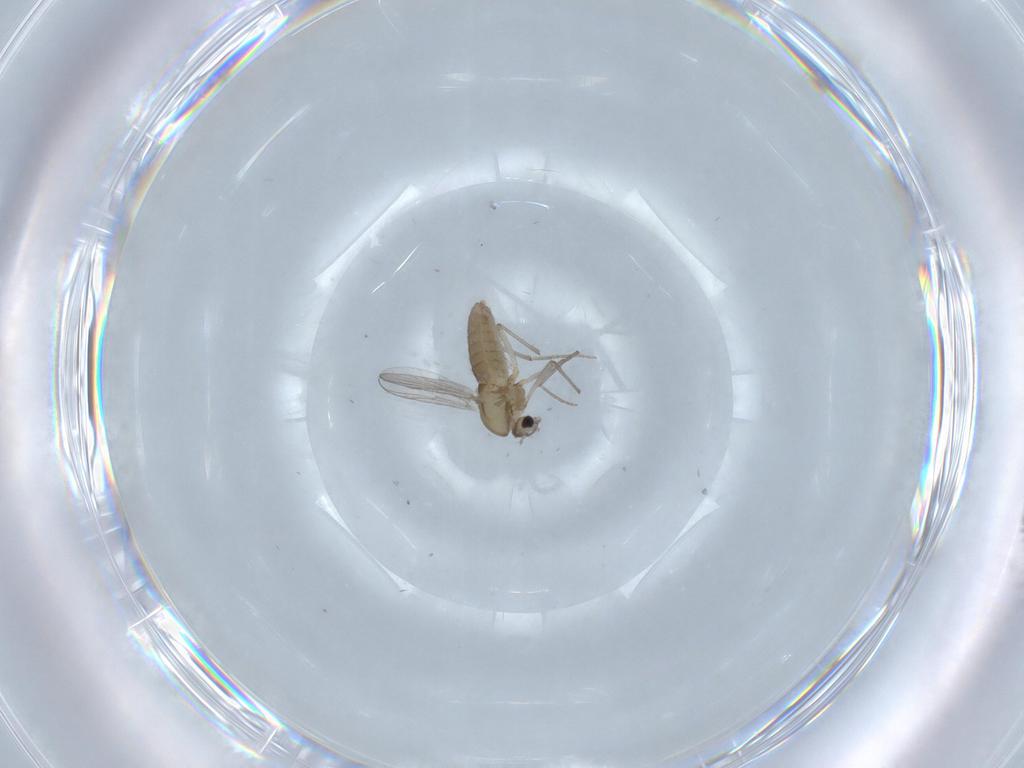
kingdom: Animalia
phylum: Arthropoda
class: Insecta
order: Diptera
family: Chironomidae
